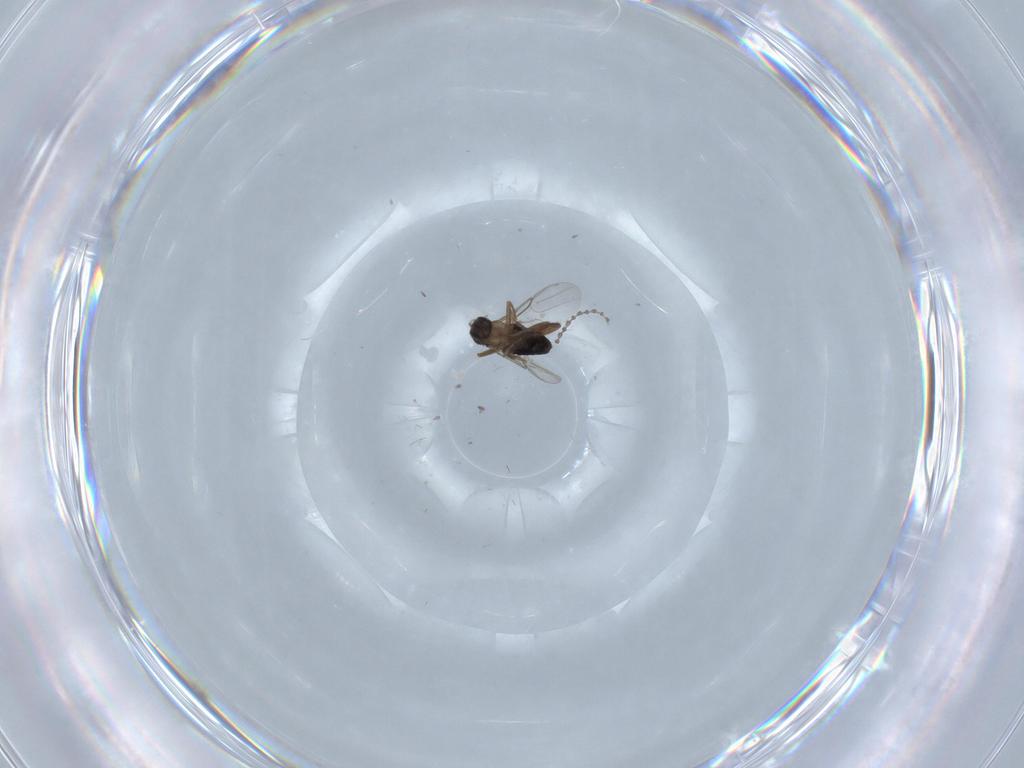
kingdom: Animalia
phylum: Arthropoda
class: Insecta
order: Diptera
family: Cecidomyiidae
